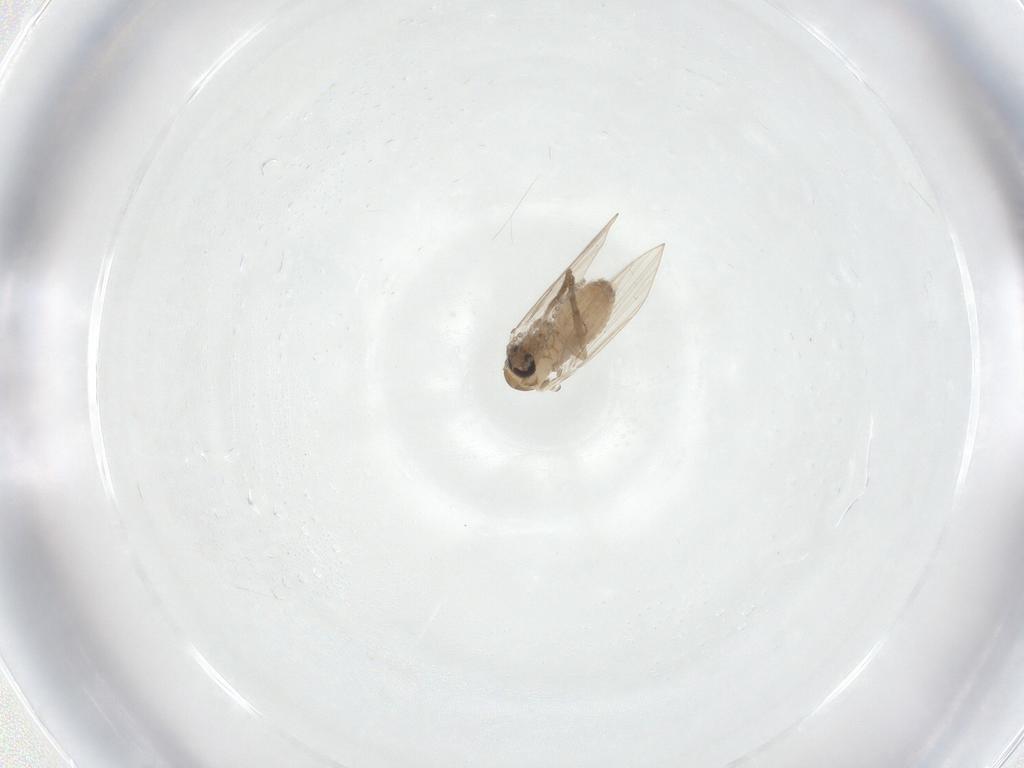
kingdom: Animalia
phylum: Arthropoda
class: Insecta
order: Diptera
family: Psychodidae
